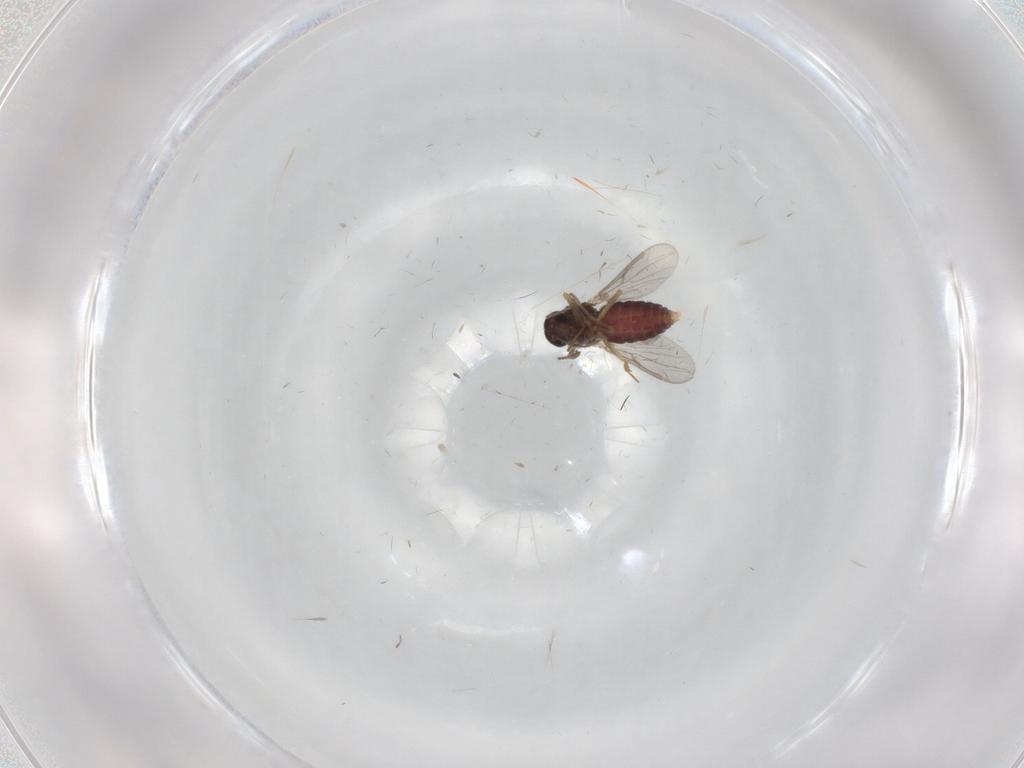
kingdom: Animalia
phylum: Arthropoda
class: Insecta
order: Diptera
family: Ceratopogonidae
